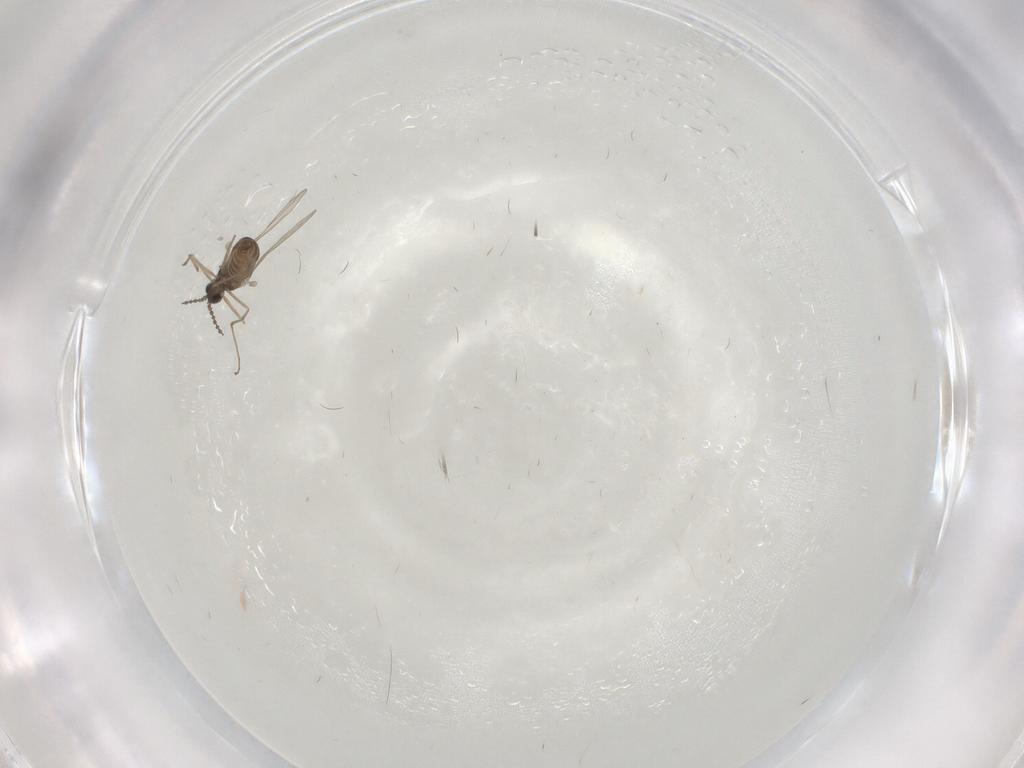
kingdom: Animalia
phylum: Arthropoda
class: Insecta
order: Diptera
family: Cecidomyiidae
